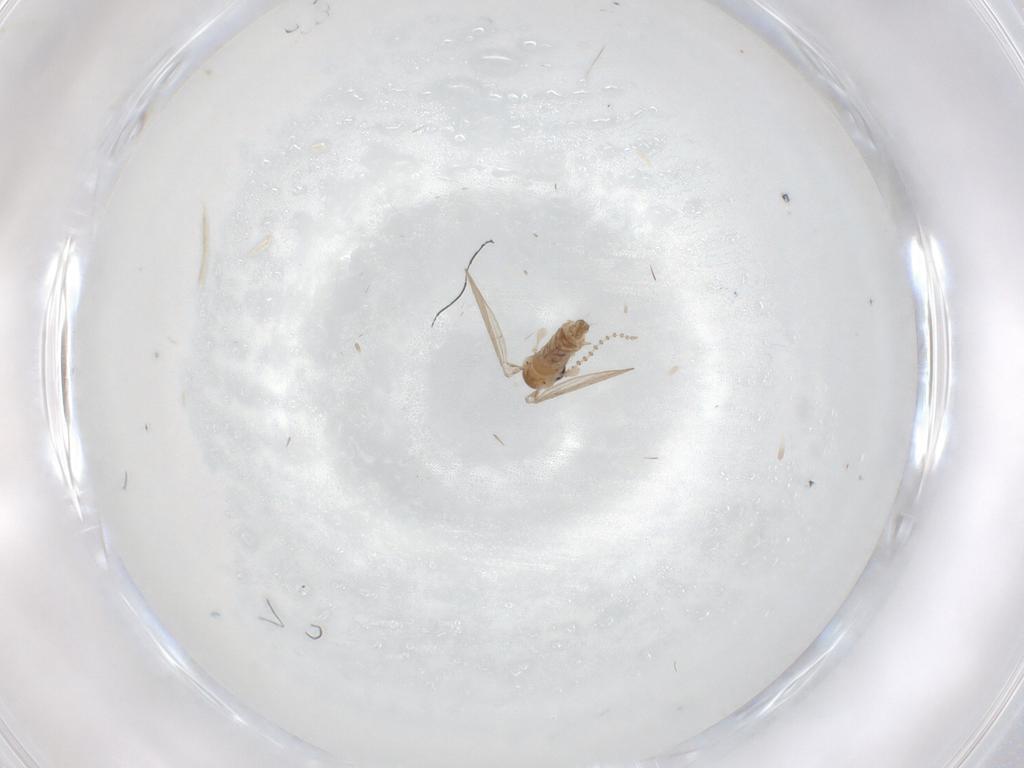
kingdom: Animalia
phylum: Arthropoda
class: Insecta
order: Diptera
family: Psychodidae
